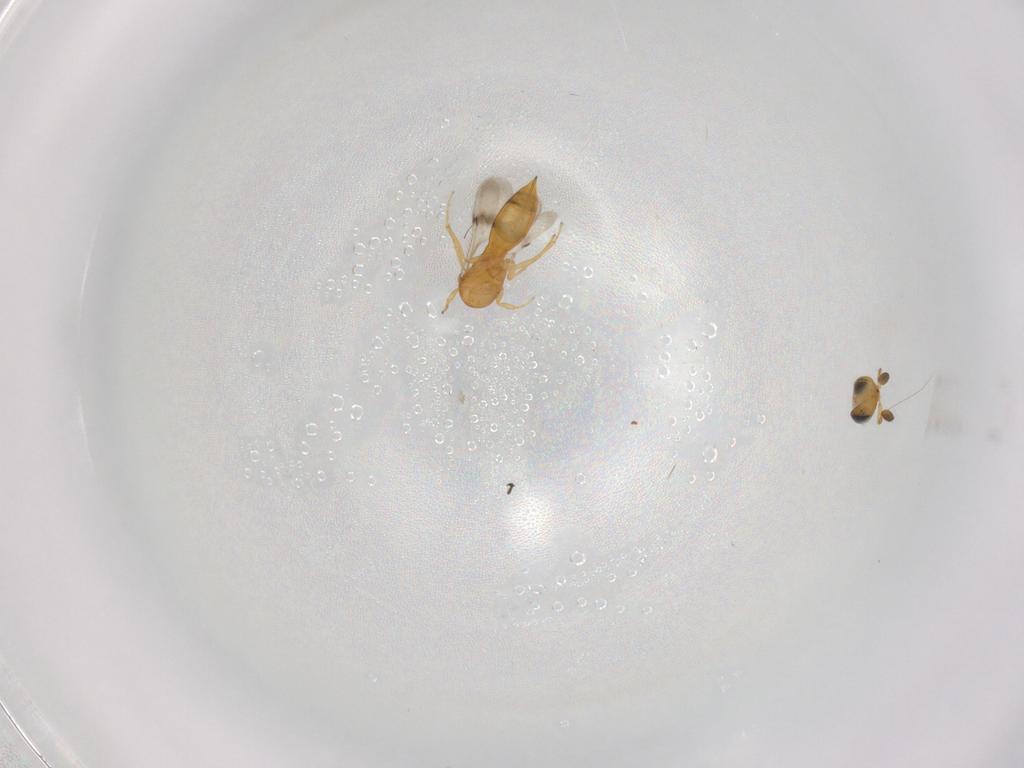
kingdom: Animalia
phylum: Arthropoda
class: Insecta
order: Hymenoptera
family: Scelionidae
